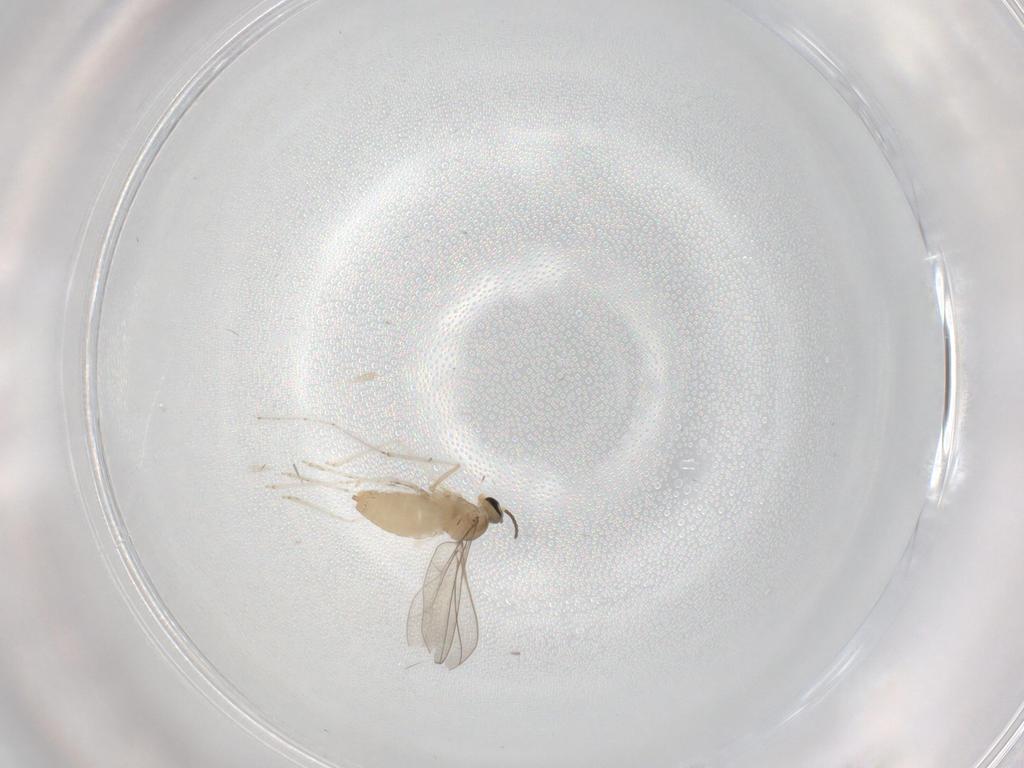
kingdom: Animalia
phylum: Arthropoda
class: Insecta
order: Diptera
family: Cecidomyiidae
